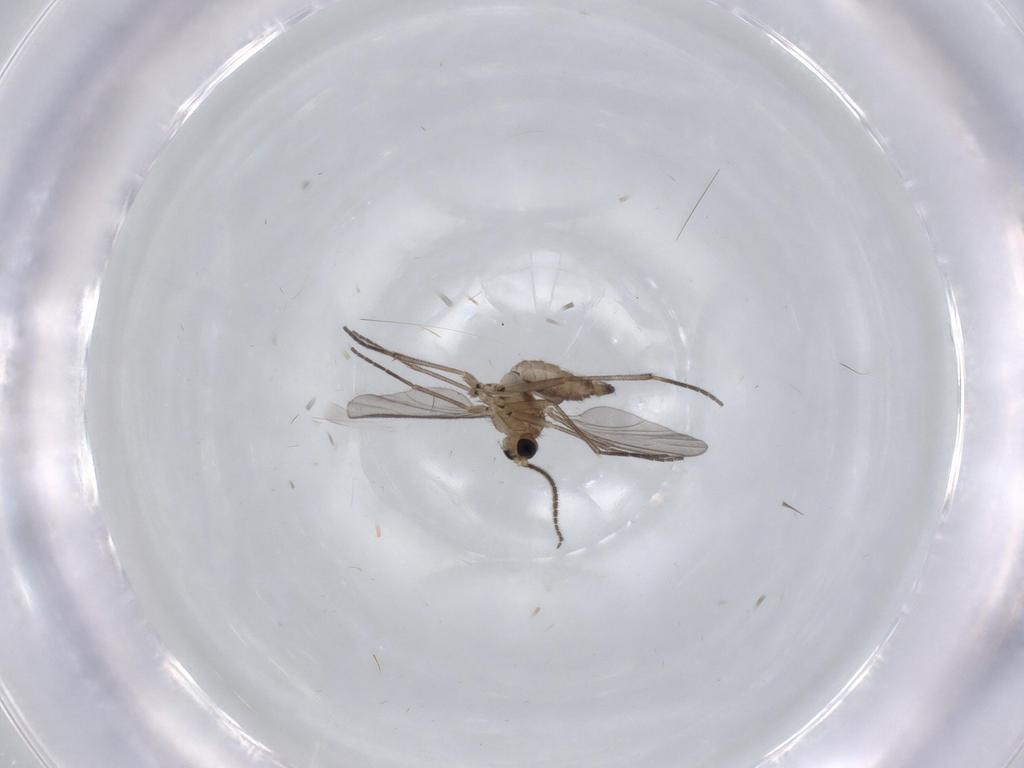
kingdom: Animalia
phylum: Arthropoda
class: Insecta
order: Diptera
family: Sciaridae
